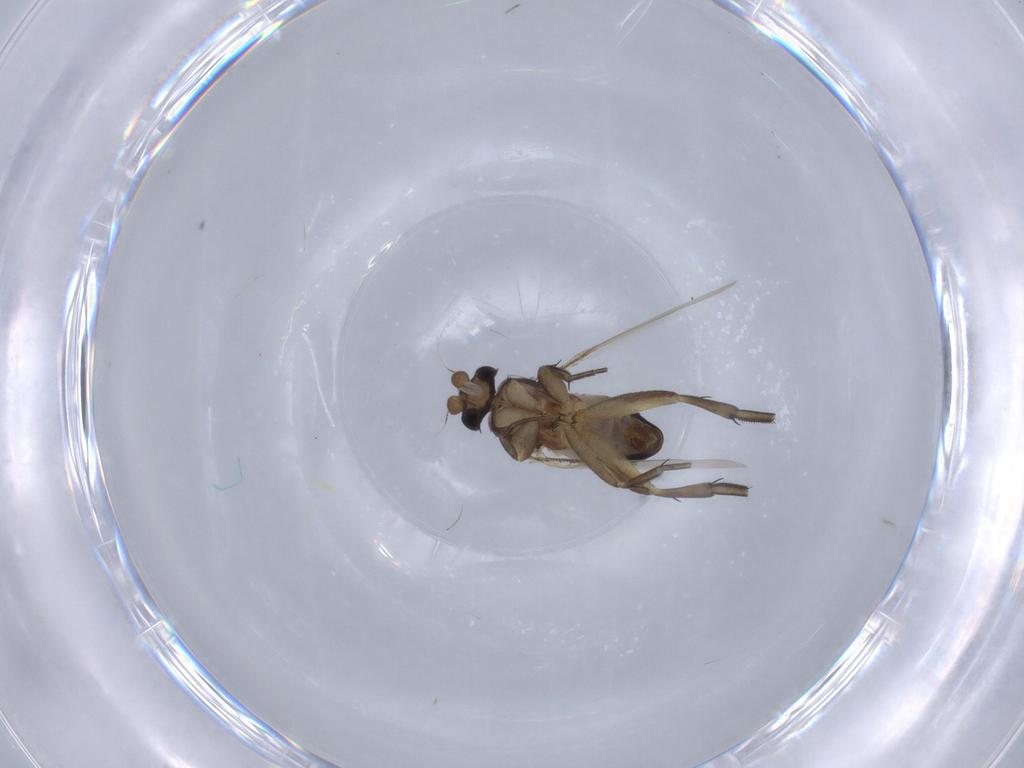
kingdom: Animalia
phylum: Arthropoda
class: Insecta
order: Diptera
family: Phoridae
